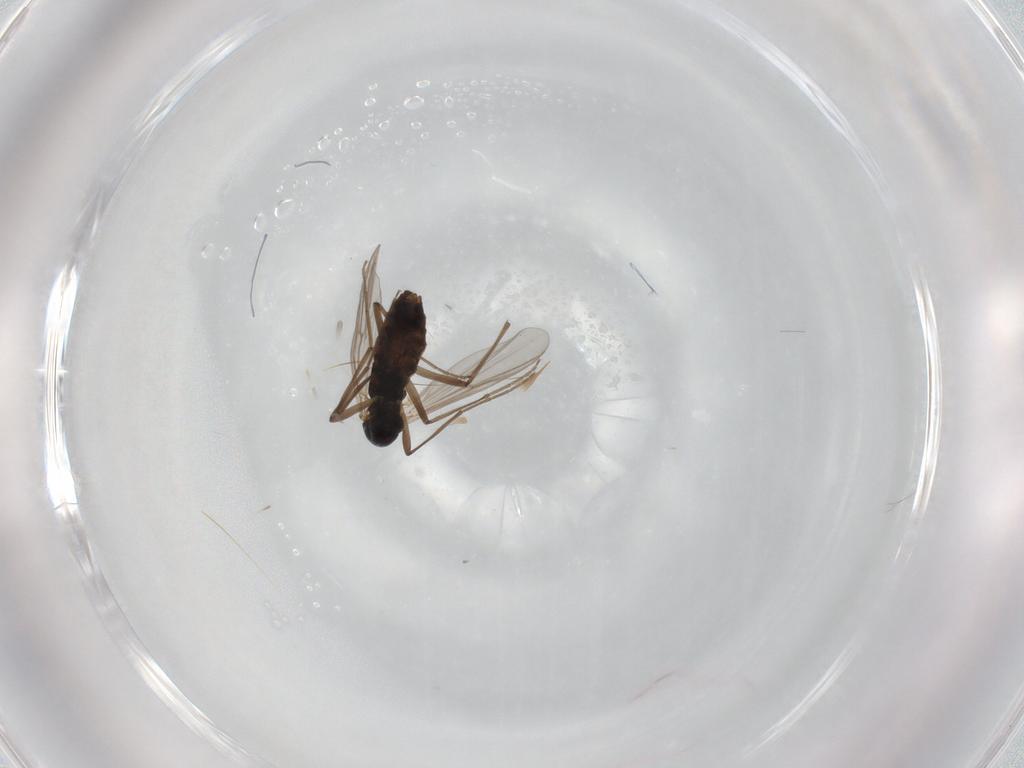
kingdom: Animalia
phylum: Arthropoda
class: Insecta
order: Diptera
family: Chironomidae
